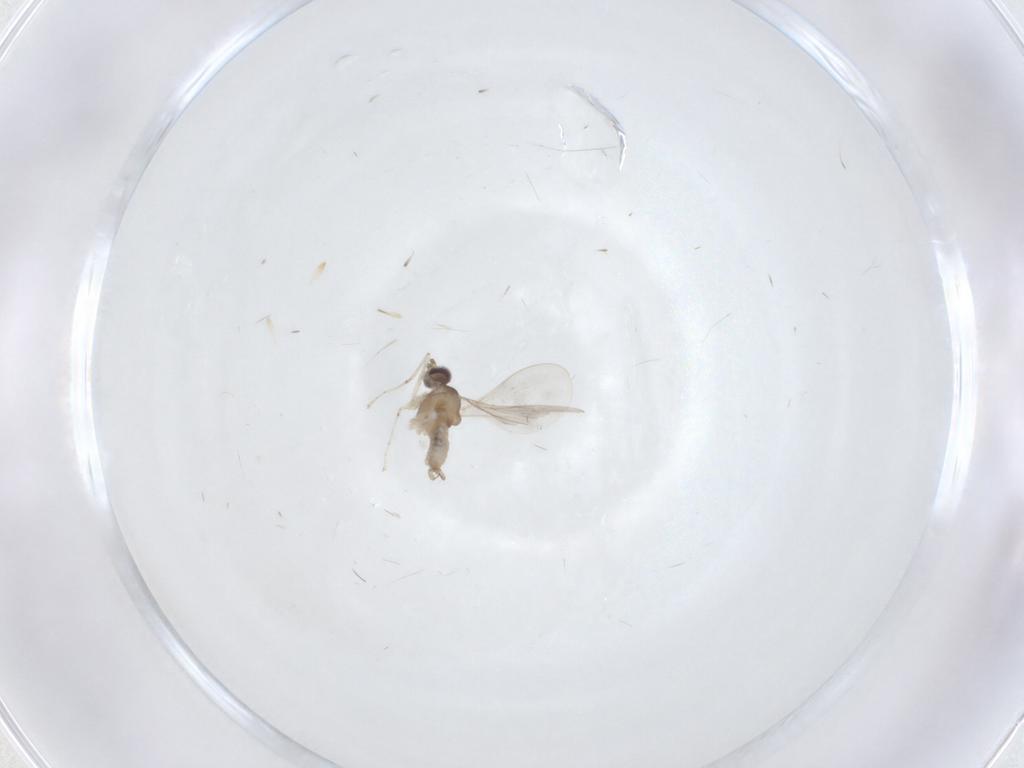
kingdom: Animalia
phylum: Arthropoda
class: Insecta
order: Diptera
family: Cecidomyiidae
